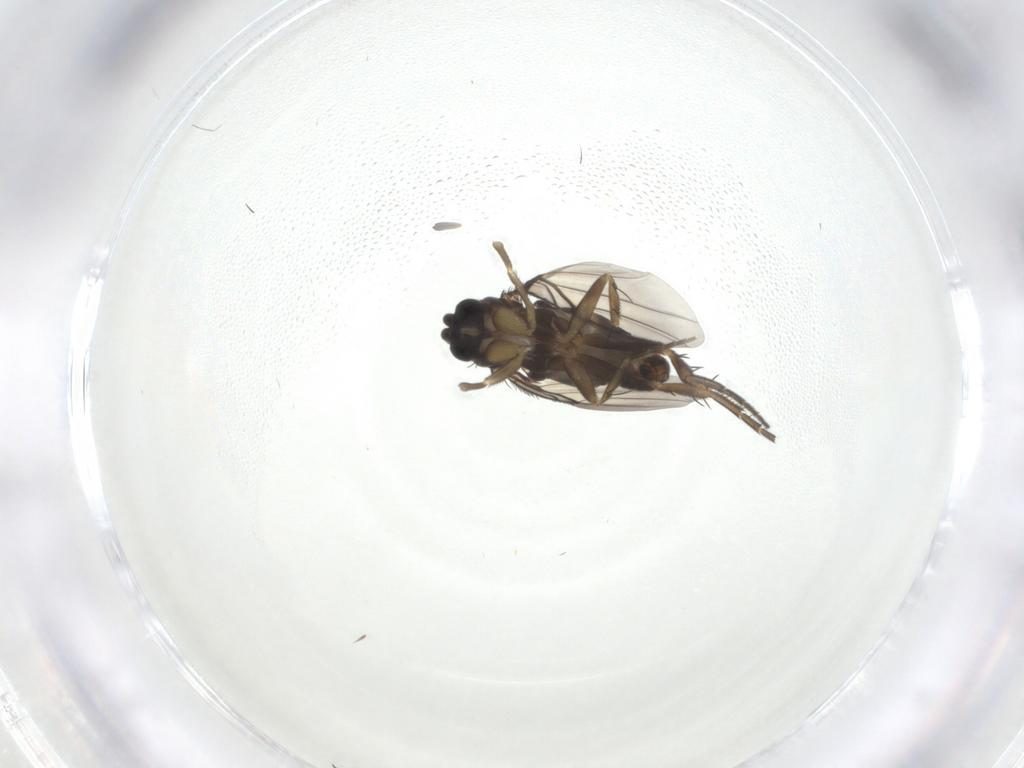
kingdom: Animalia
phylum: Arthropoda
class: Insecta
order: Diptera
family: Phoridae
